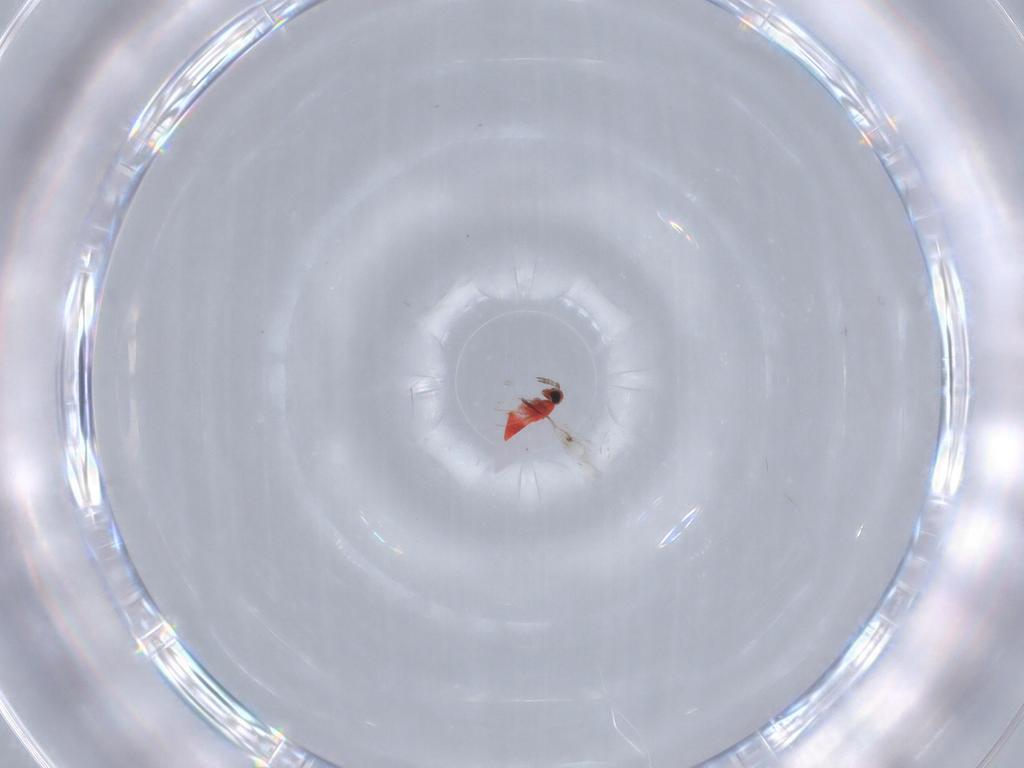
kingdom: Animalia
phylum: Arthropoda
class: Insecta
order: Hymenoptera
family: Trichogrammatidae
